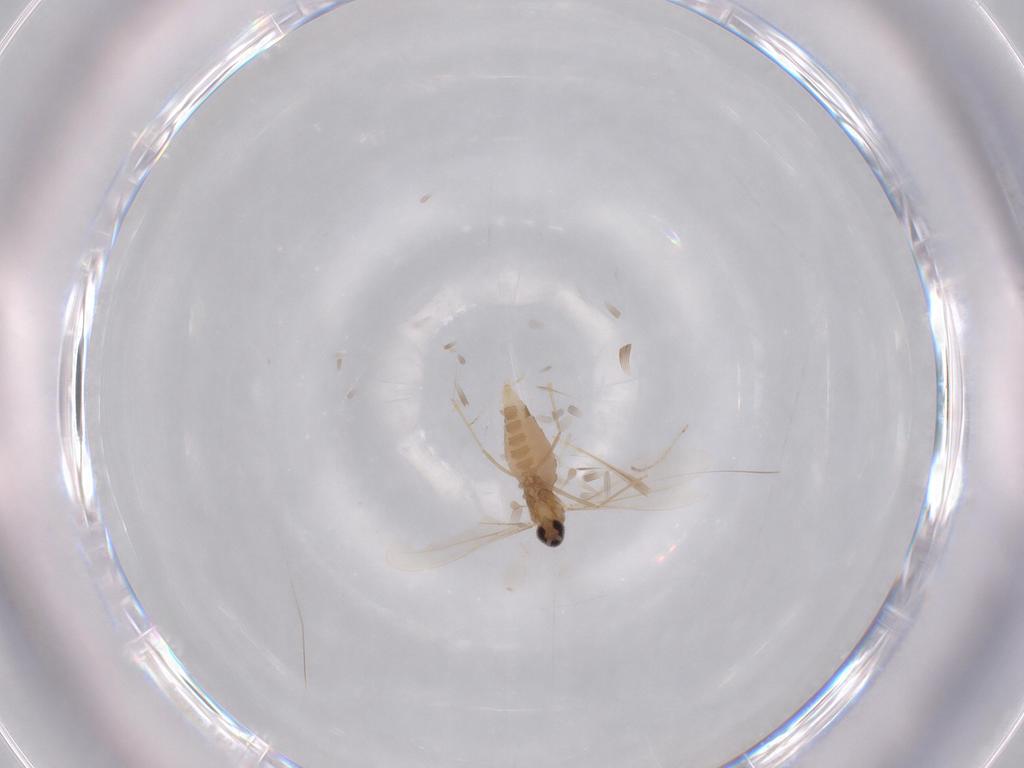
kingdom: Animalia
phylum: Arthropoda
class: Insecta
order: Diptera
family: Cecidomyiidae
